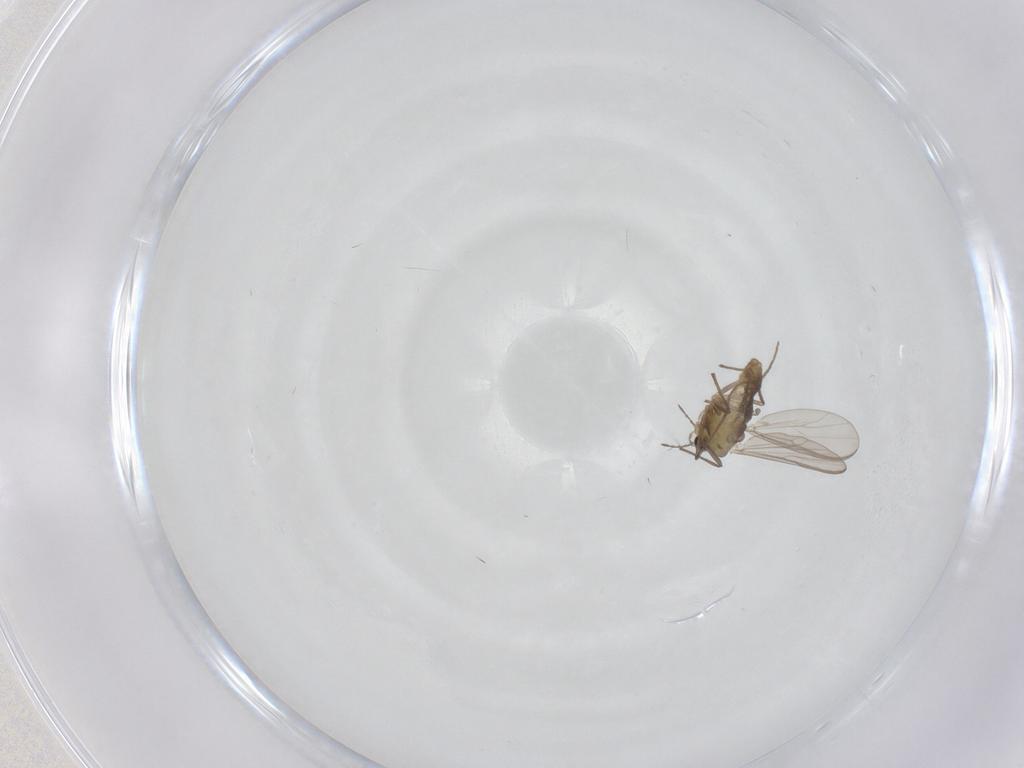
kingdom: Animalia
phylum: Arthropoda
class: Insecta
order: Diptera
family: Chironomidae
